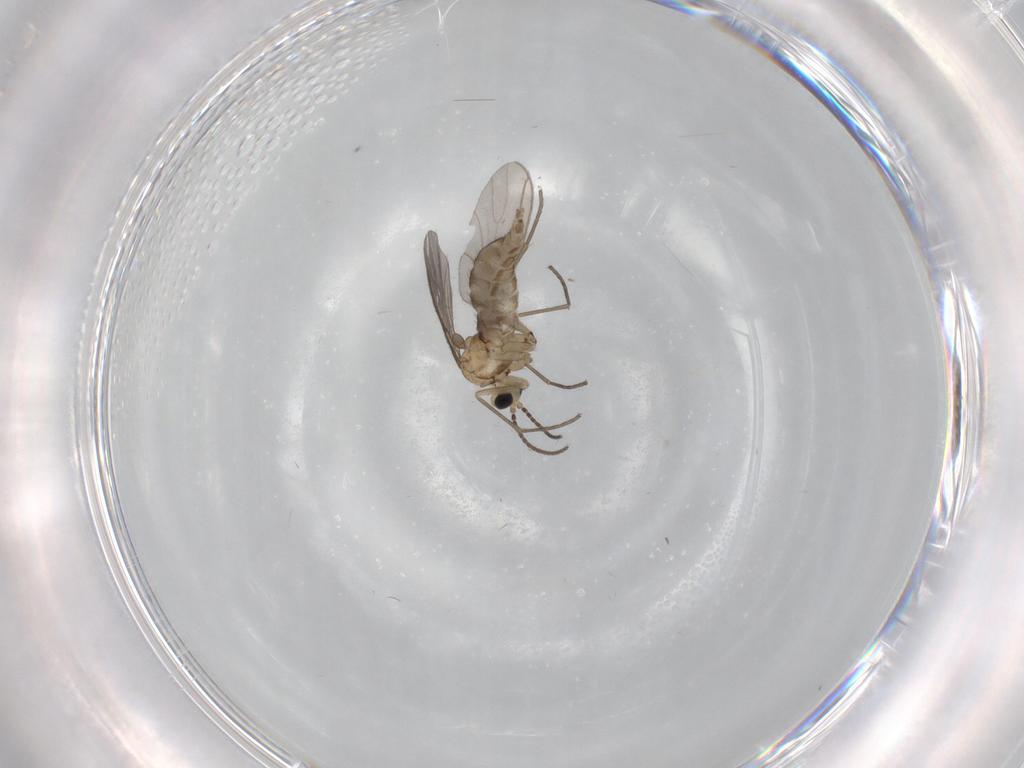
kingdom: Animalia
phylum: Arthropoda
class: Insecta
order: Diptera
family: Sciaridae
